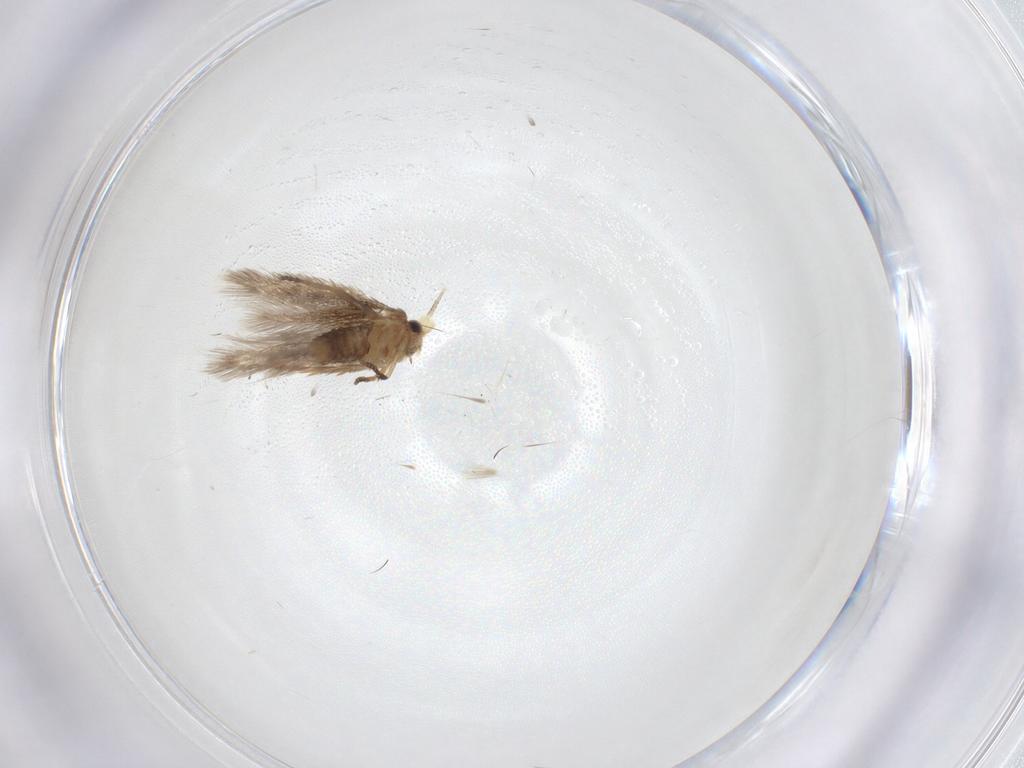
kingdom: Animalia
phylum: Arthropoda
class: Insecta
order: Lepidoptera
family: Nepticulidae
